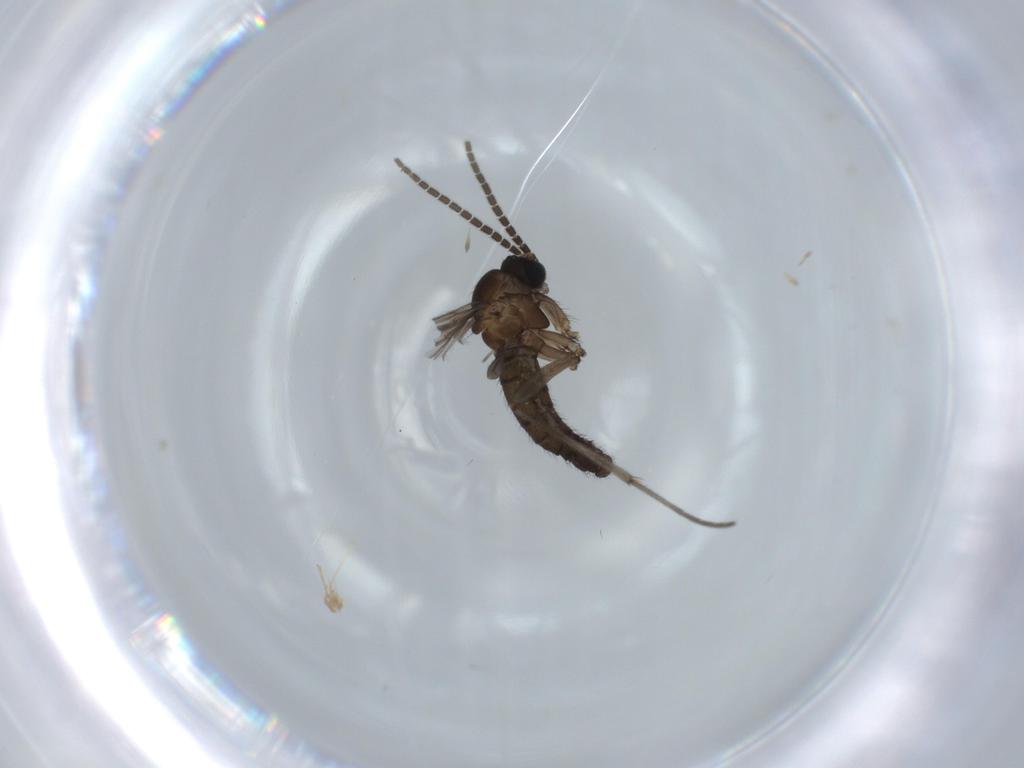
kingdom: Animalia
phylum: Arthropoda
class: Insecta
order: Diptera
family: Sciaridae
